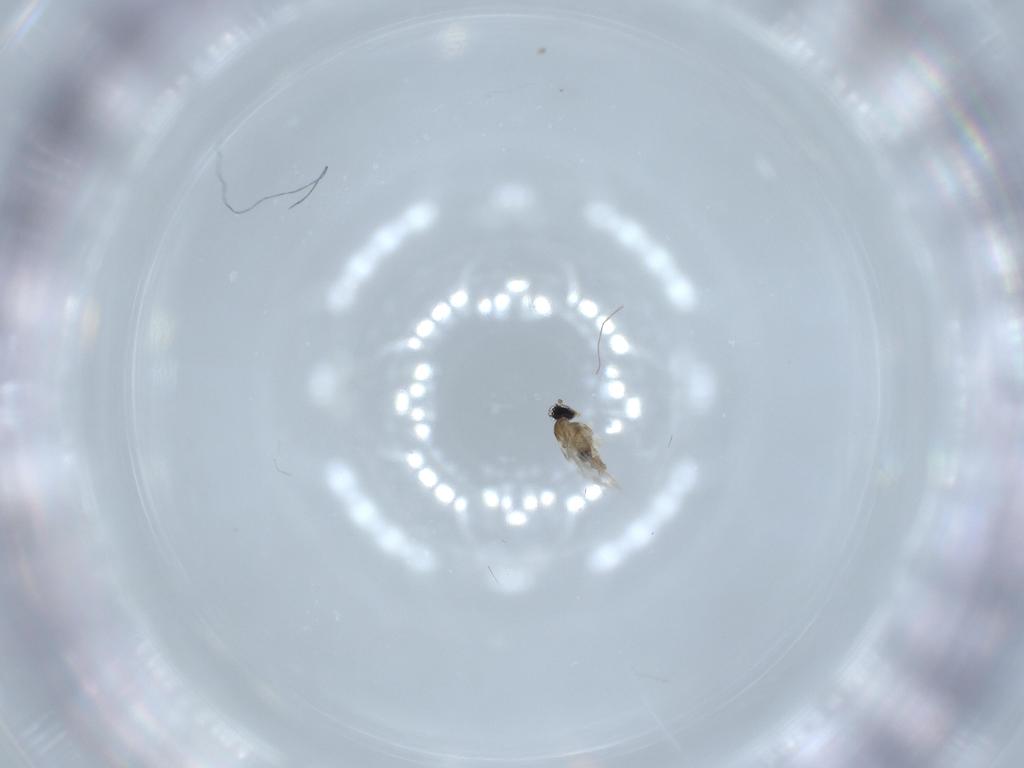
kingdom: Animalia
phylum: Arthropoda
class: Insecta
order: Diptera
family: Cecidomyiidae
